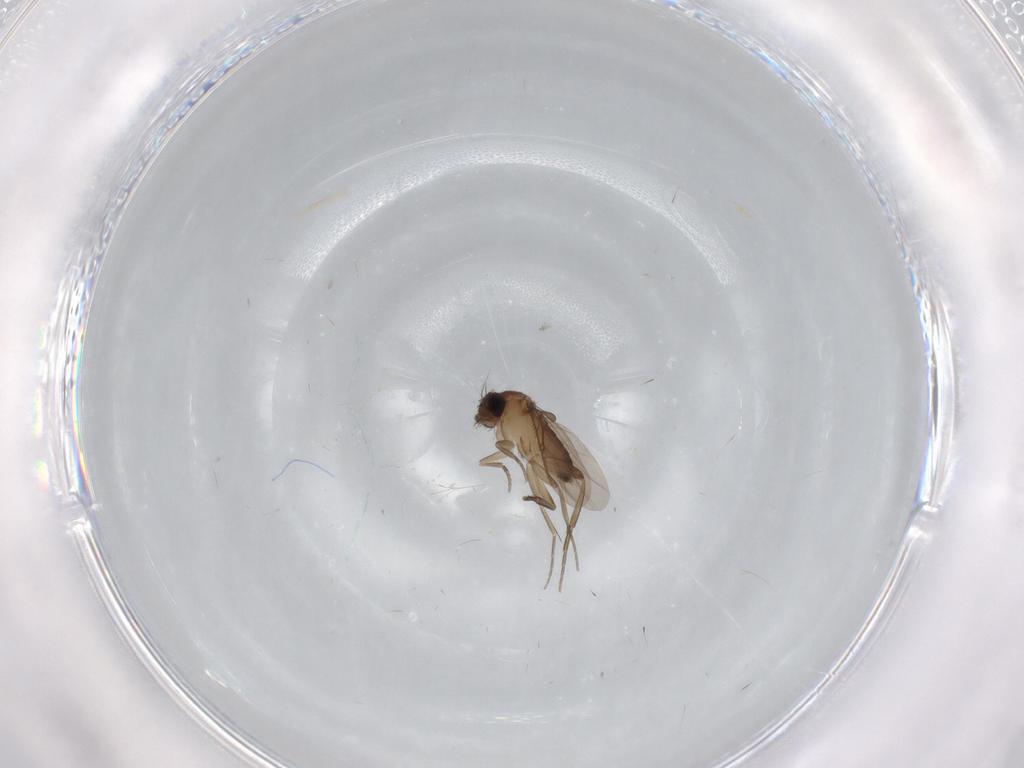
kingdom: Animalia
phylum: Arthropoda
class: Insecta
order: Diptera
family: Phoridae
